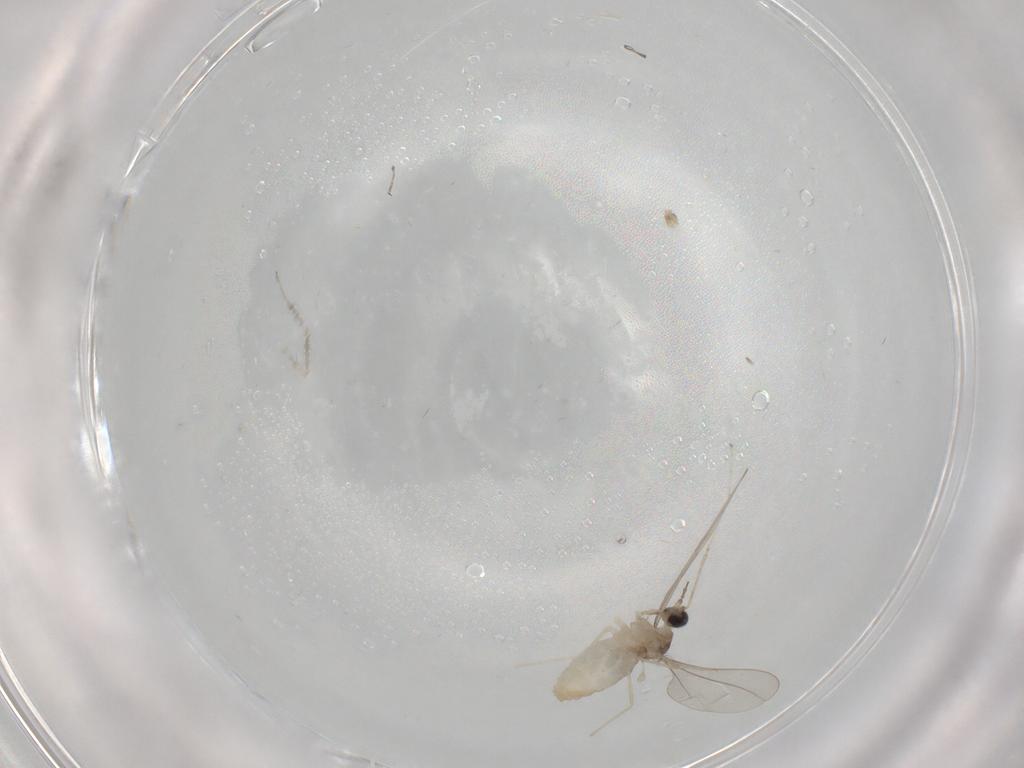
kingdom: Animalia
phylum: Arthropoda
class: Insecta
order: Diptera
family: Cecidomyiidae
